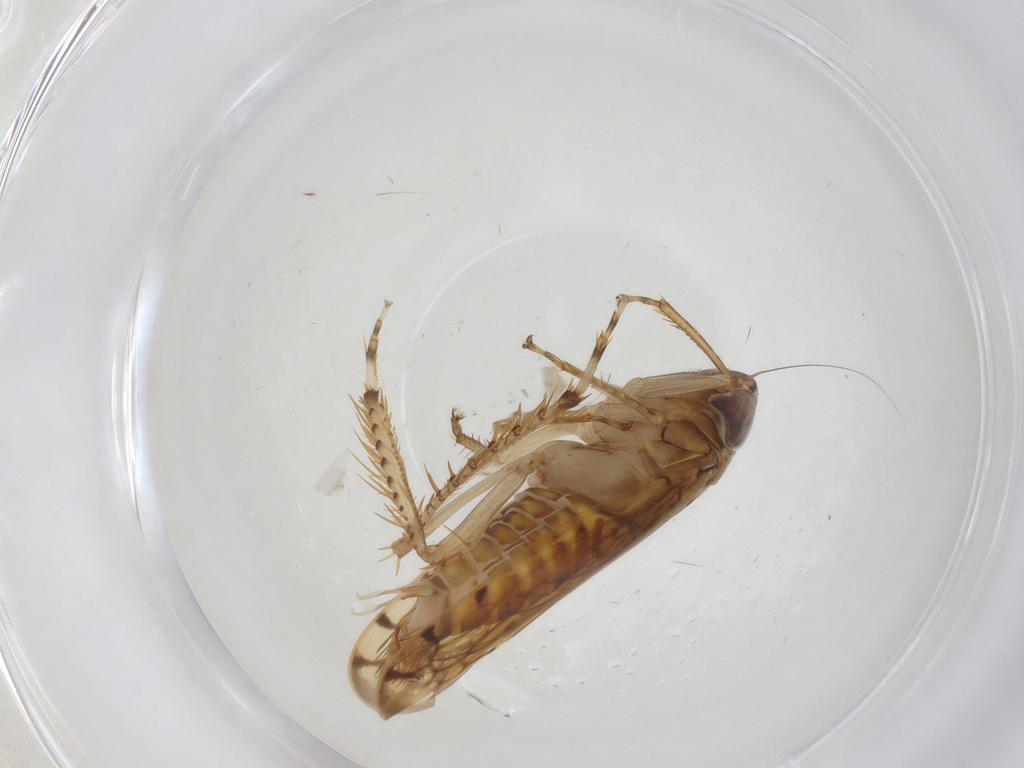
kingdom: Animalia
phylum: Arthropoda
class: Insecta
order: Hemiptera
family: Cicadellidae
